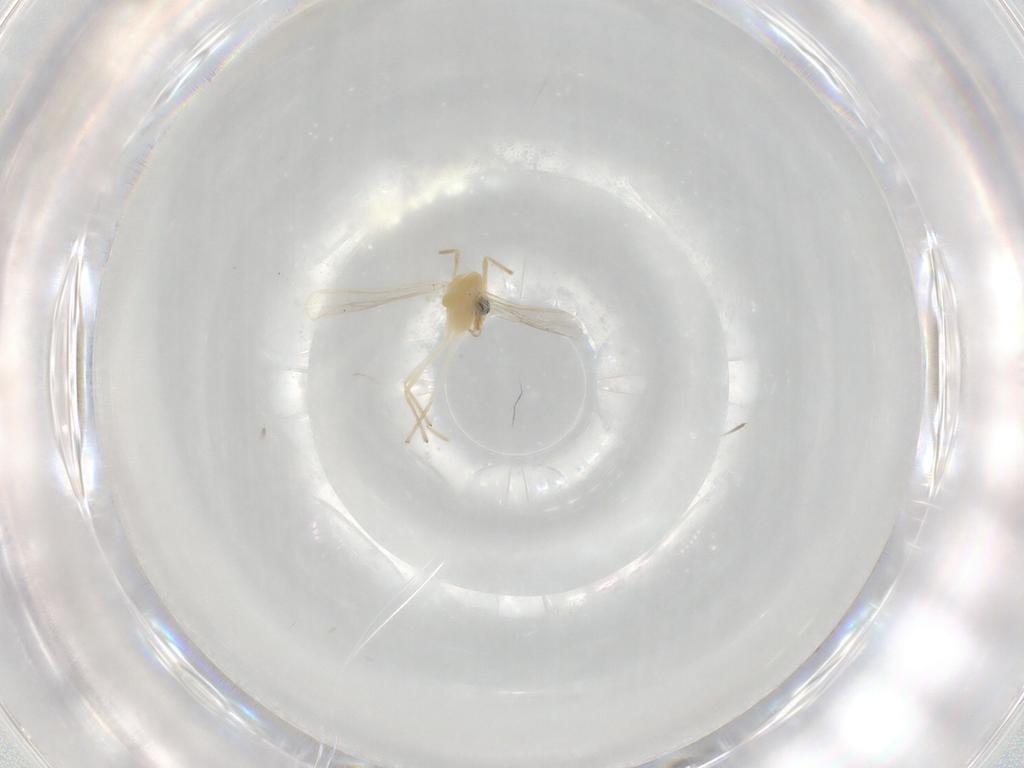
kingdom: Animalia
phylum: Arthropoda
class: Insecta
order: Diptera
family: Chironomidae
